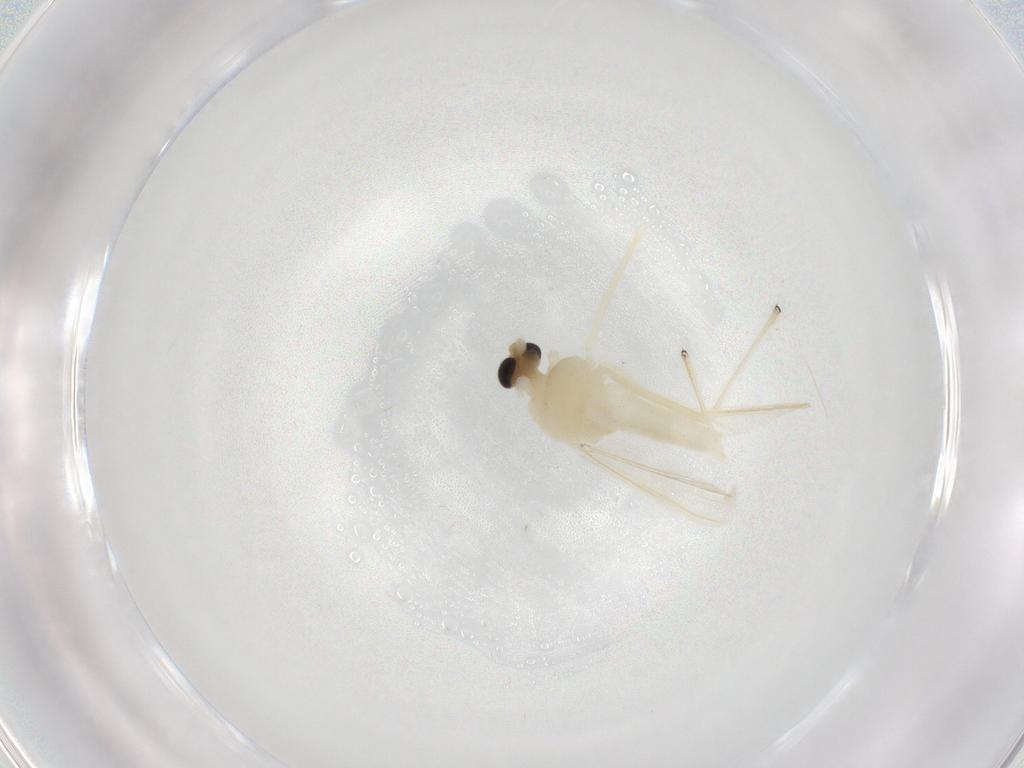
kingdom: Animalia
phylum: Arthropoda
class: Insecta
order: Diptera
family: Chironomidae
